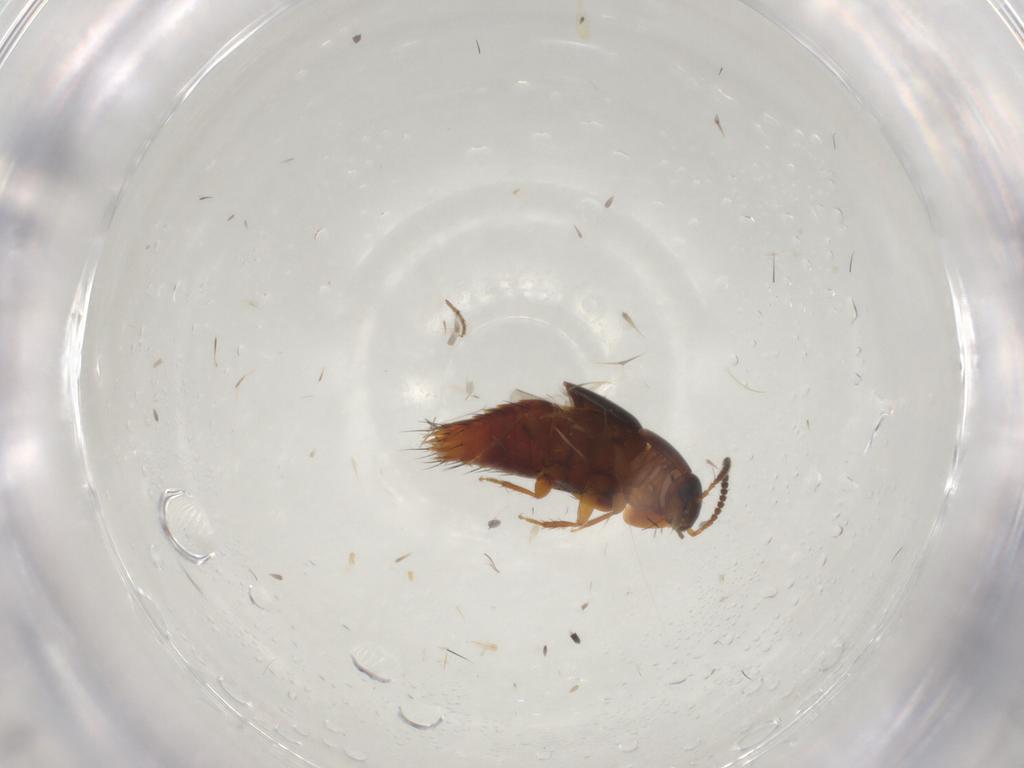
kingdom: Animalia
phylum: Arthropoda
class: Insecta
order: Coleoptera
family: Staphylinidae
